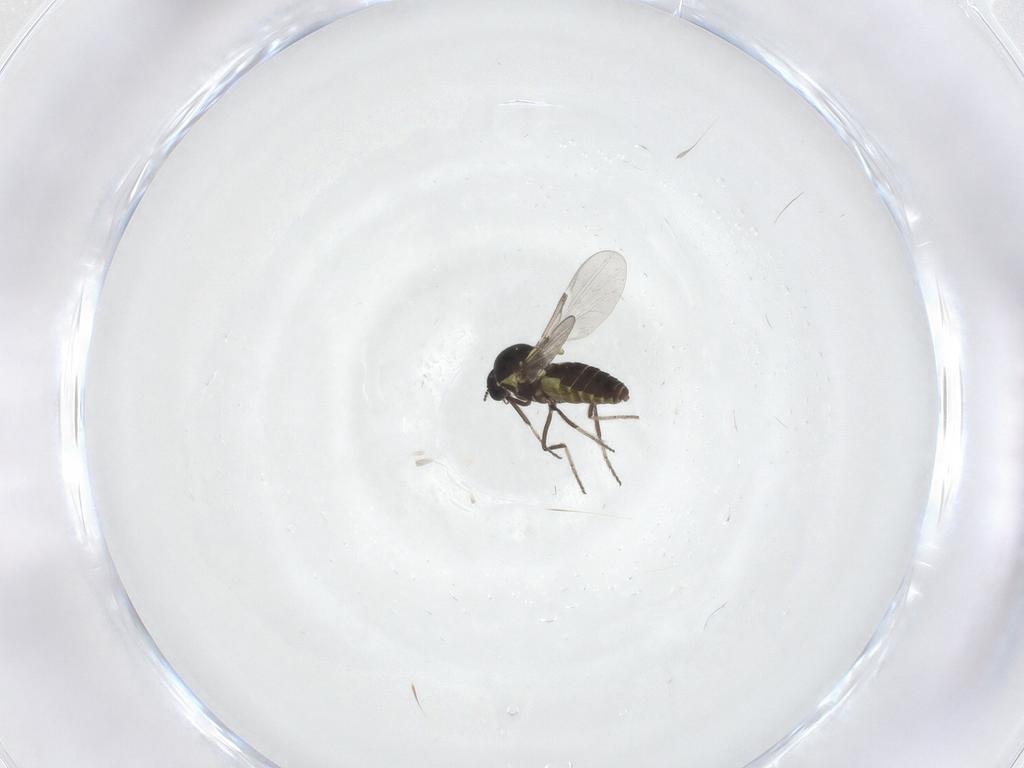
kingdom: Animalia
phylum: Arthropoda
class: Insecta
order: Diptera
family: Ceratopogonidae
